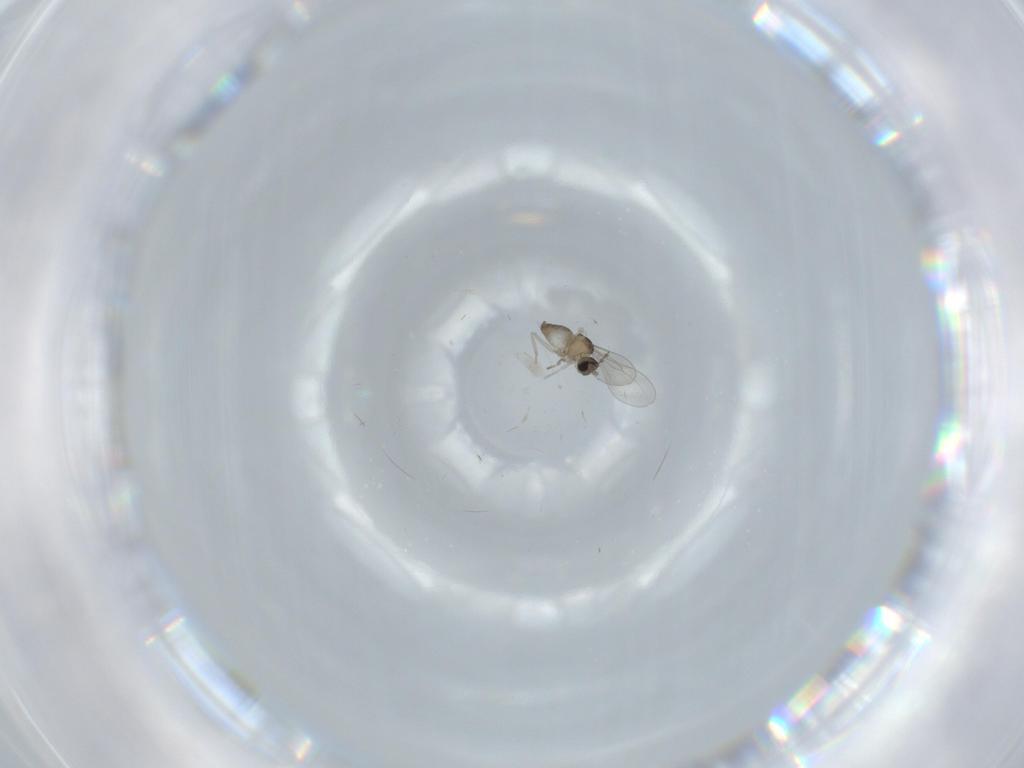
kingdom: Animalia
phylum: Arthropoda
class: Insecta
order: Diptera
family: Cecidomyiidae
